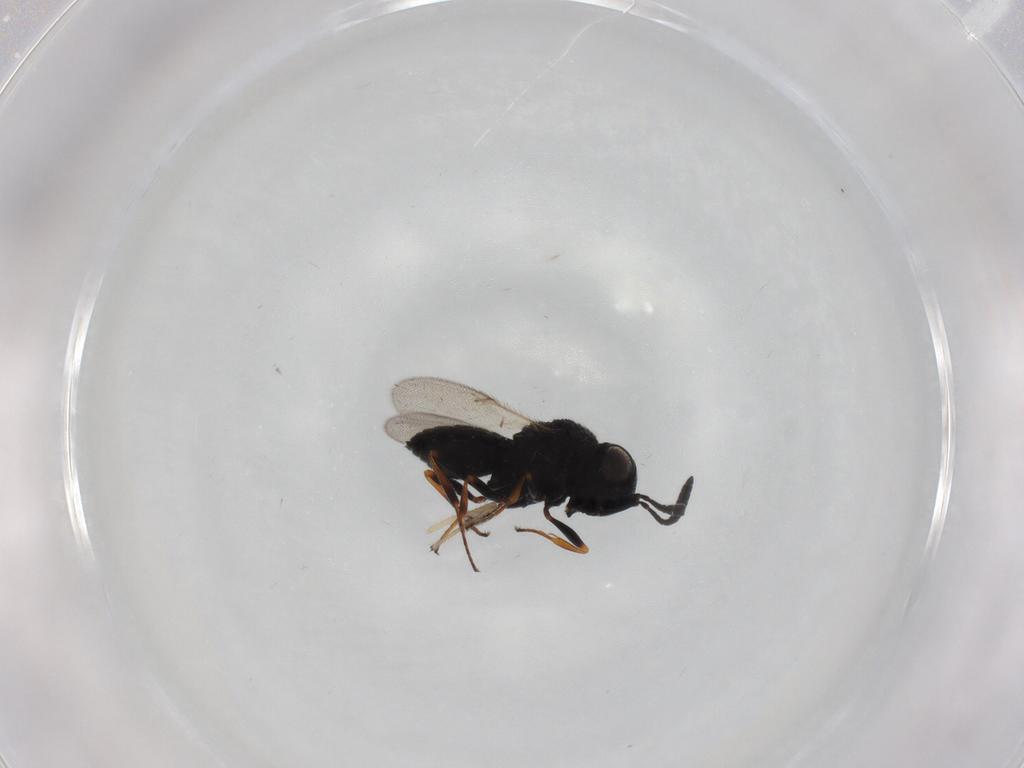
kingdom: Animalia
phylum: Arthropoda
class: Insecta
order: Hymenoptera
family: Scelionidae
